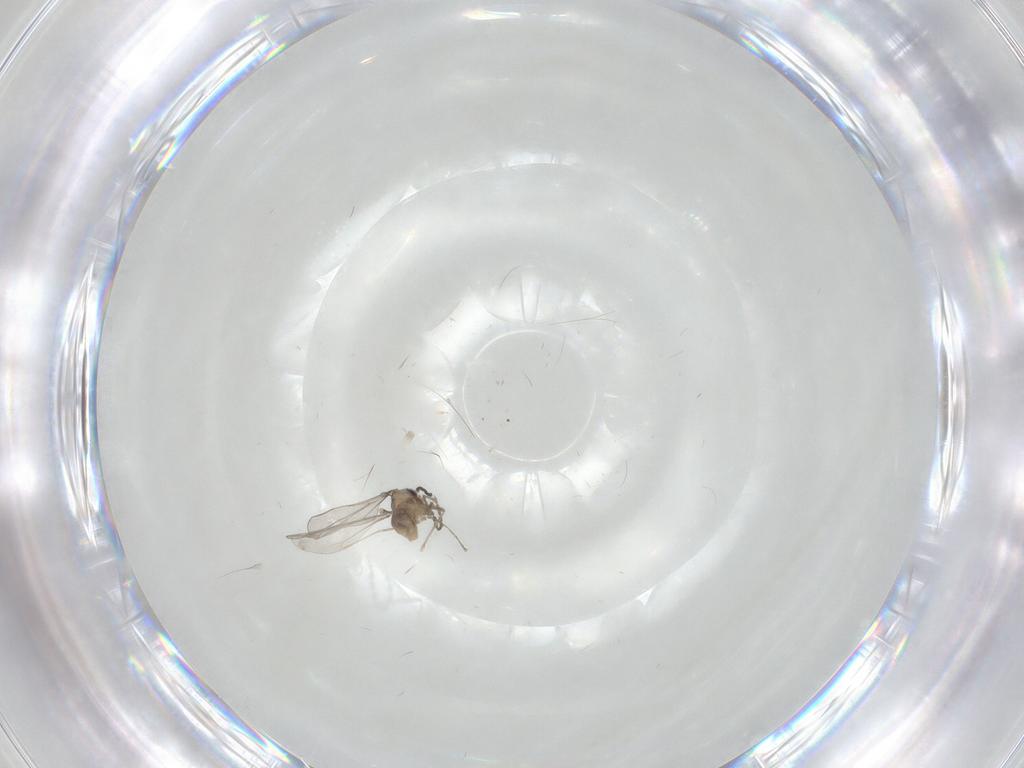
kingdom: Animalia
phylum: Arthropoda
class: Insecta
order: Diptera
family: Cecidomyiidae
